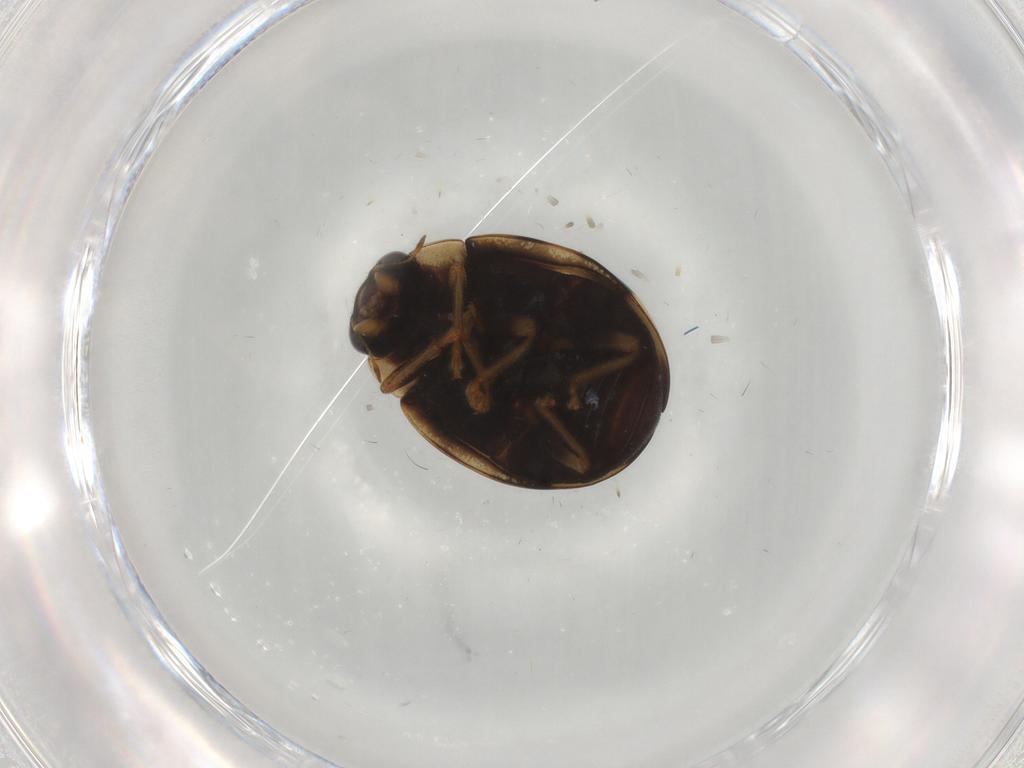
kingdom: Animalia
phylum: Arthropoda
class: Insecta
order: Coleoptera
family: Coccinellidae
